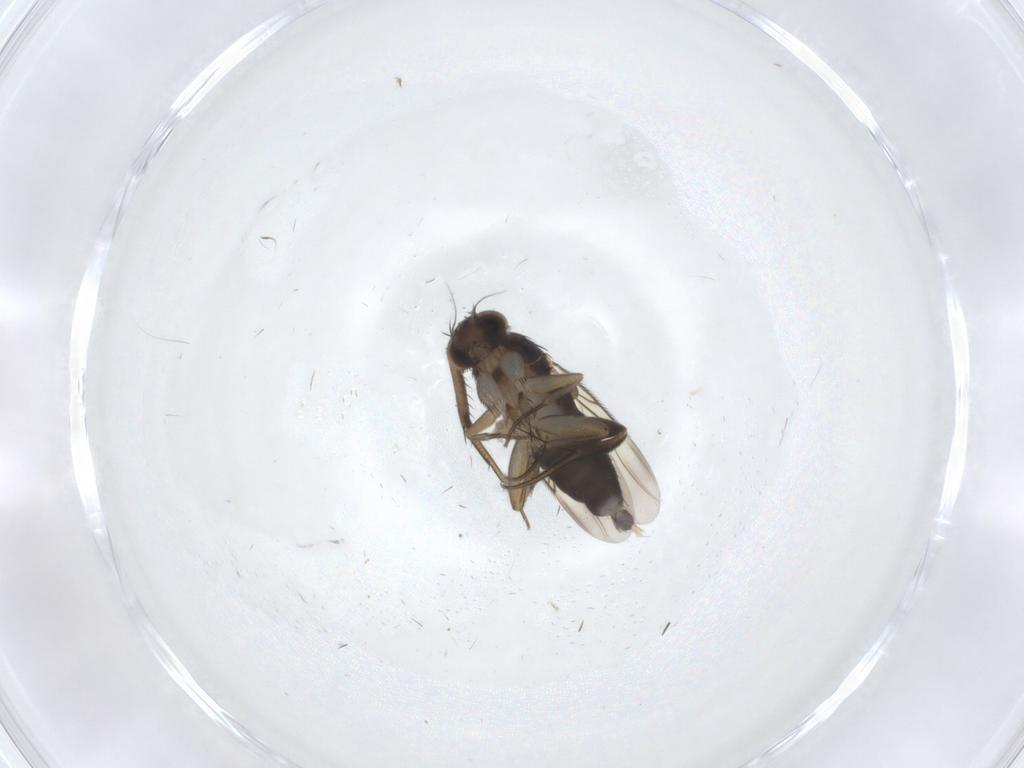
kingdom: Animalia
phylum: Arthropoda
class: Insecta
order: Diptera
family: Phoridae
